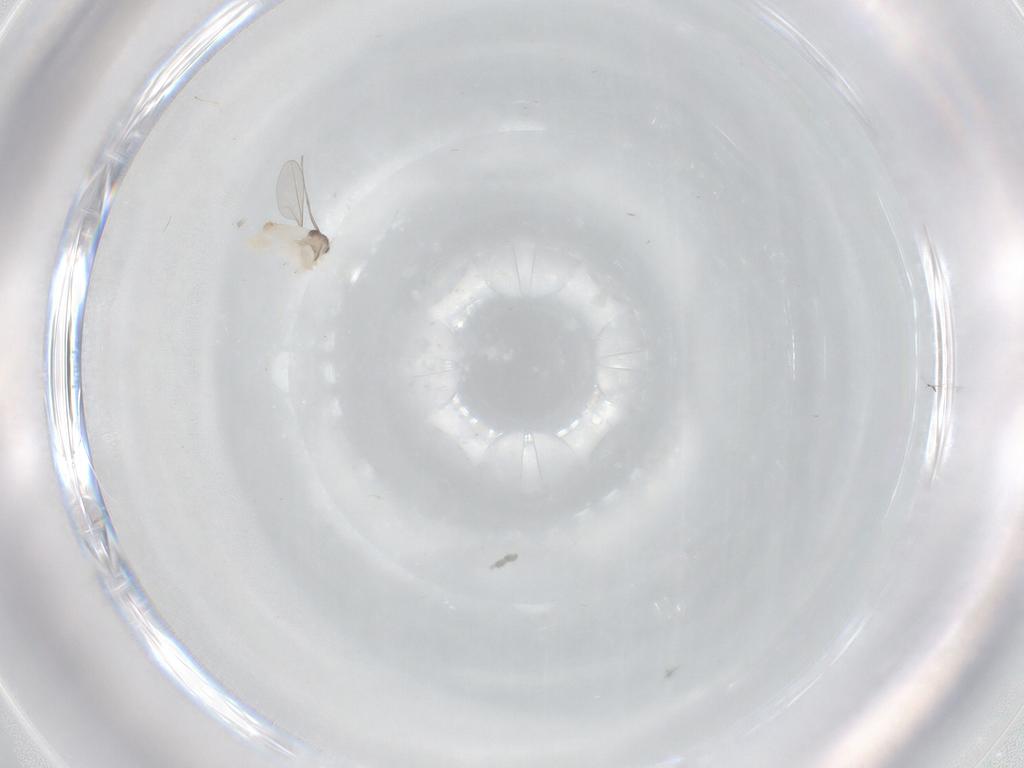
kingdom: Animalia
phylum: Arthropoda
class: Insecta
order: Diptera
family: Cecidomyiidae
